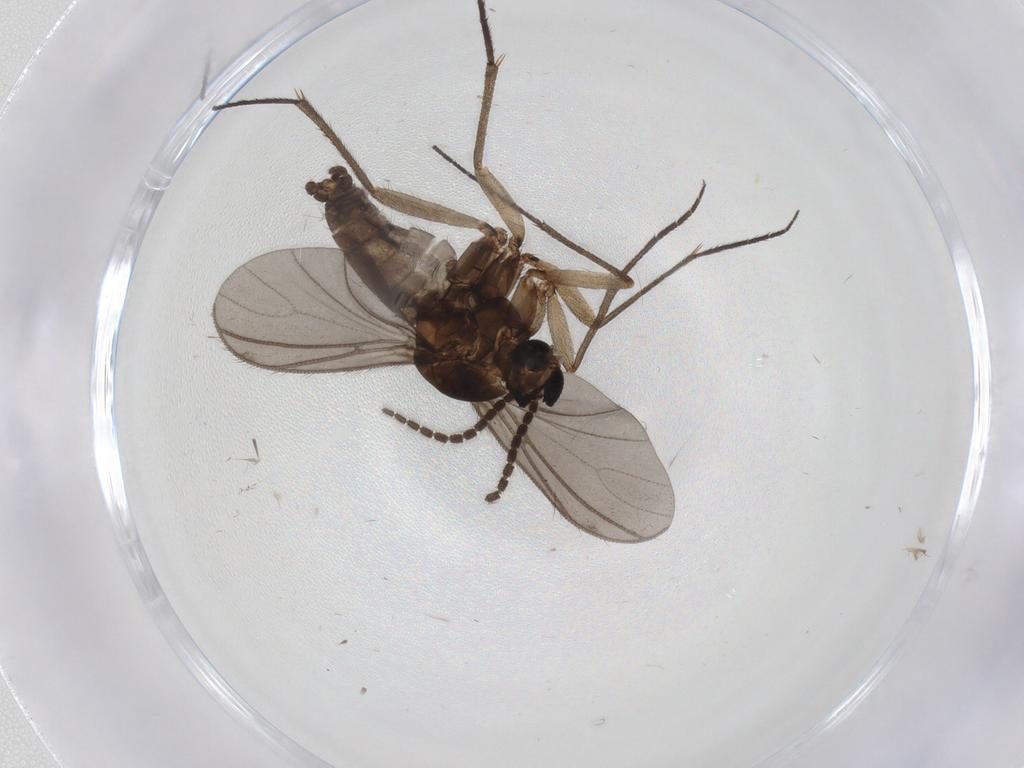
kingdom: Animalia
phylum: Arthropoda
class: Insecta
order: Diptera
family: Sciaridae
